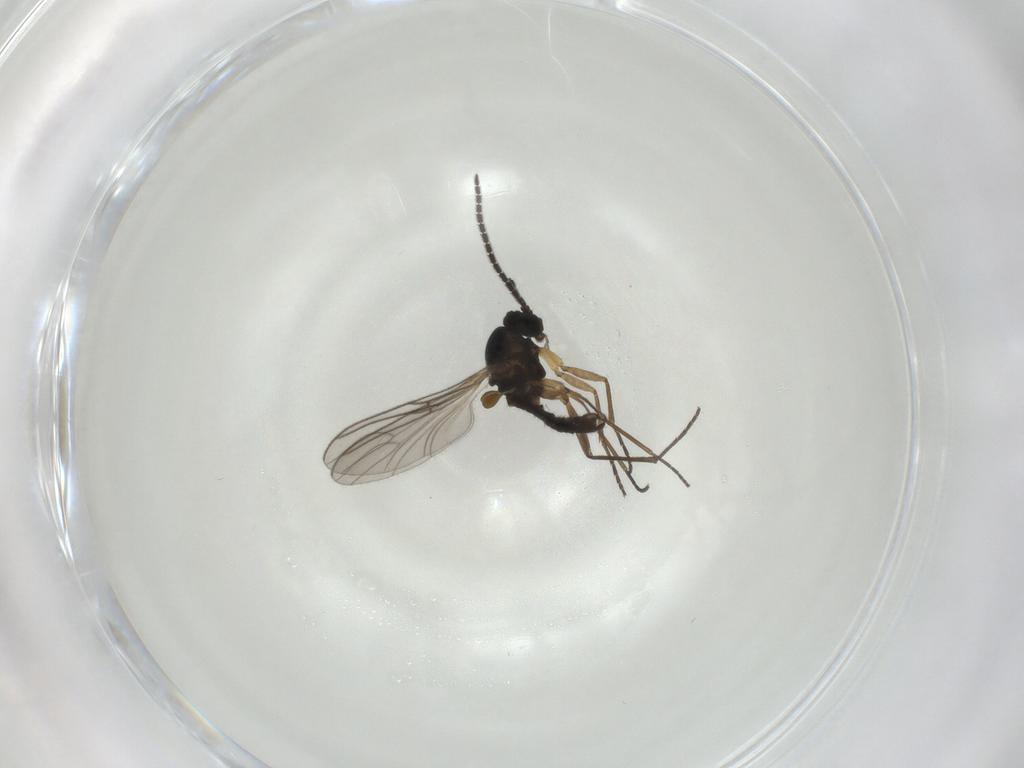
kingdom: Animalia
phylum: Arthropoda
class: Insecta
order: Diptera
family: Sciaridae
